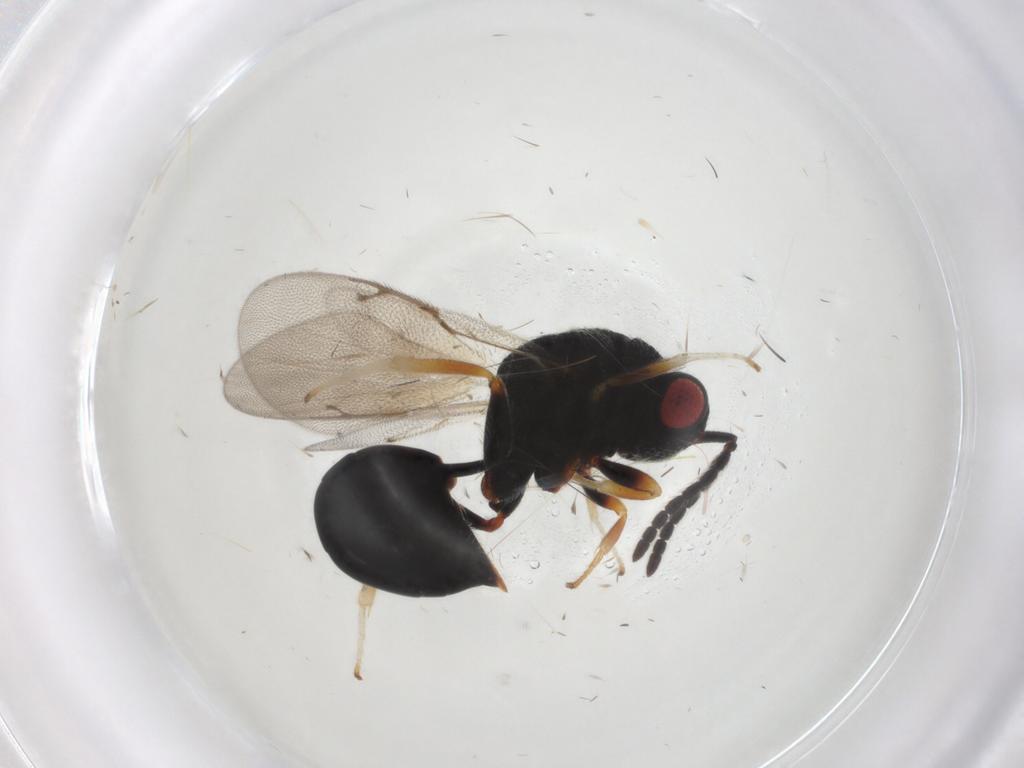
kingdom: Animalia
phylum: Arthropoda
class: Insecta
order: Hymenoptera
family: Eurytomidae
